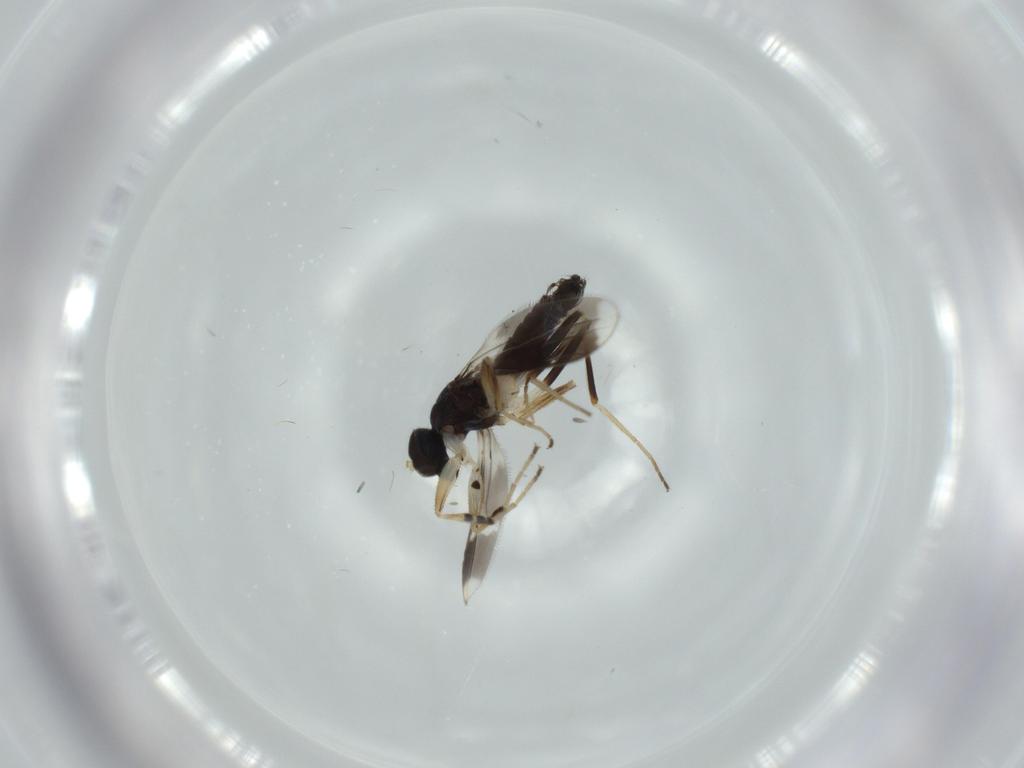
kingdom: Animalia
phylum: Arthropoda
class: Insecta
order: Diptera
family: Hybotidae
